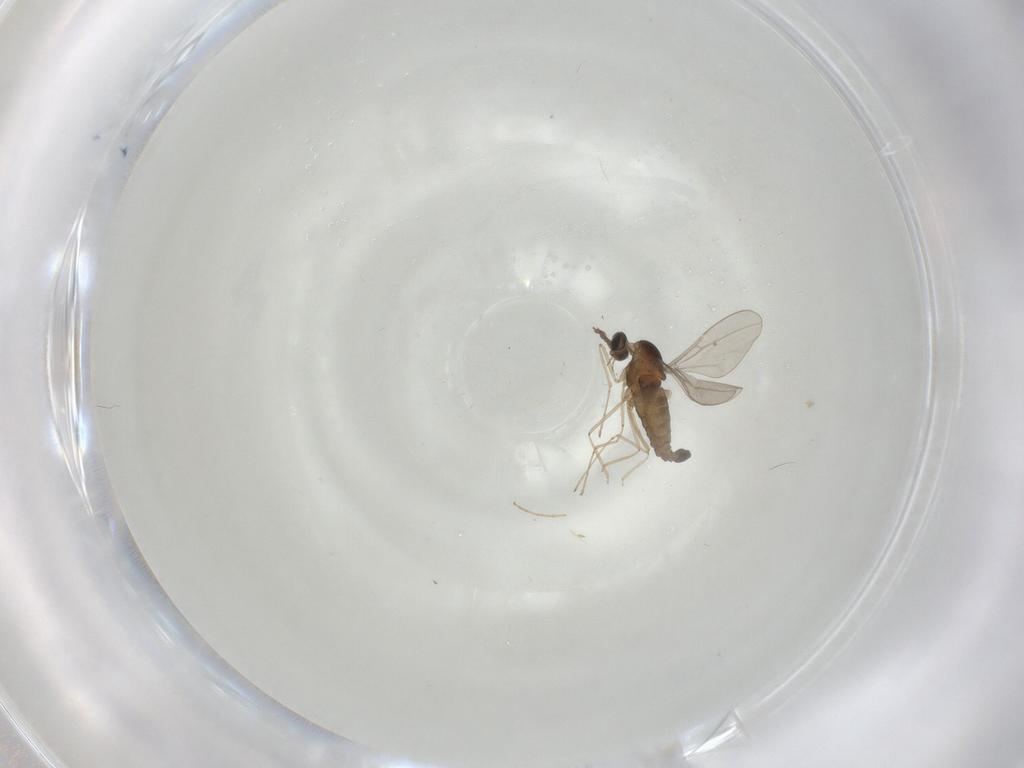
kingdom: Animalia
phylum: Arthropoda
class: Insecta
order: Diptera
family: Cecidomyiidae
